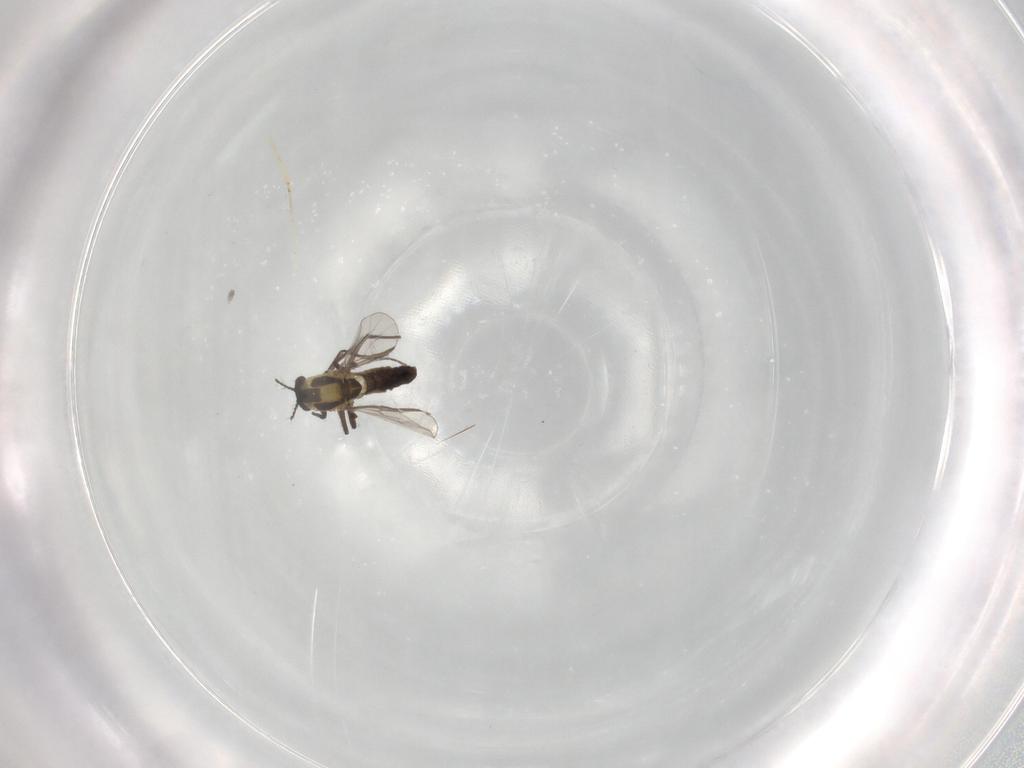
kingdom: Animalia
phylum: Arthropoda
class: Insecta
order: Diptera
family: Chironomidae
